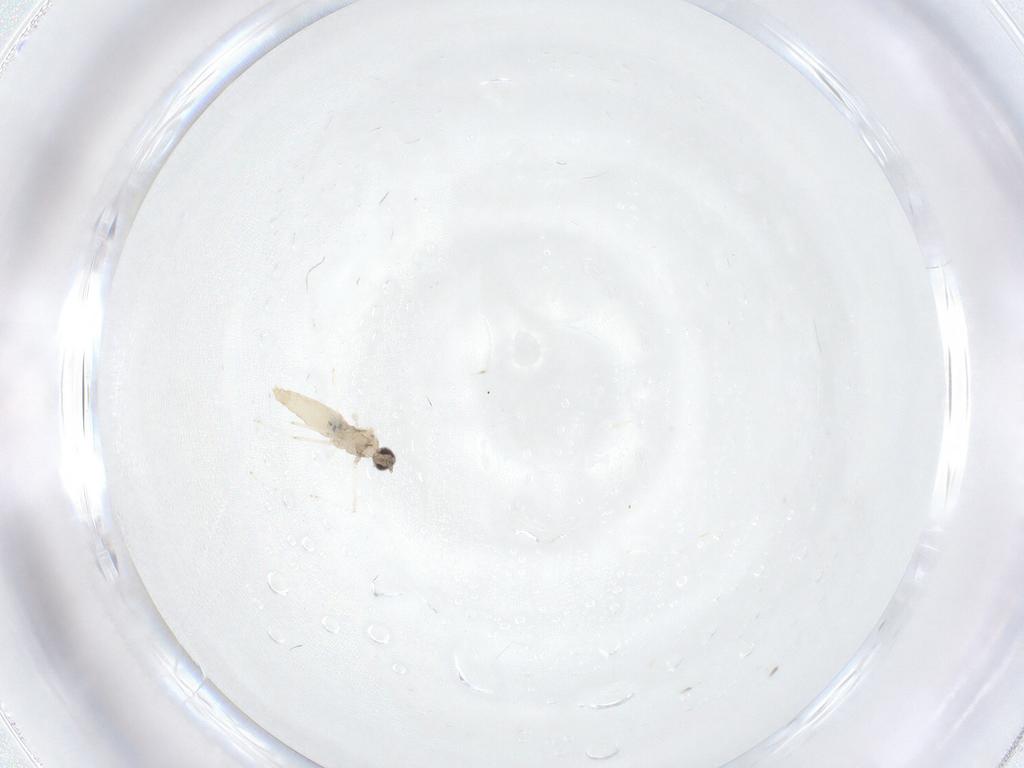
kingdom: Animalia
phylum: Arthropoda
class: Insecta
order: Diptera
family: Cecidomyiidae
